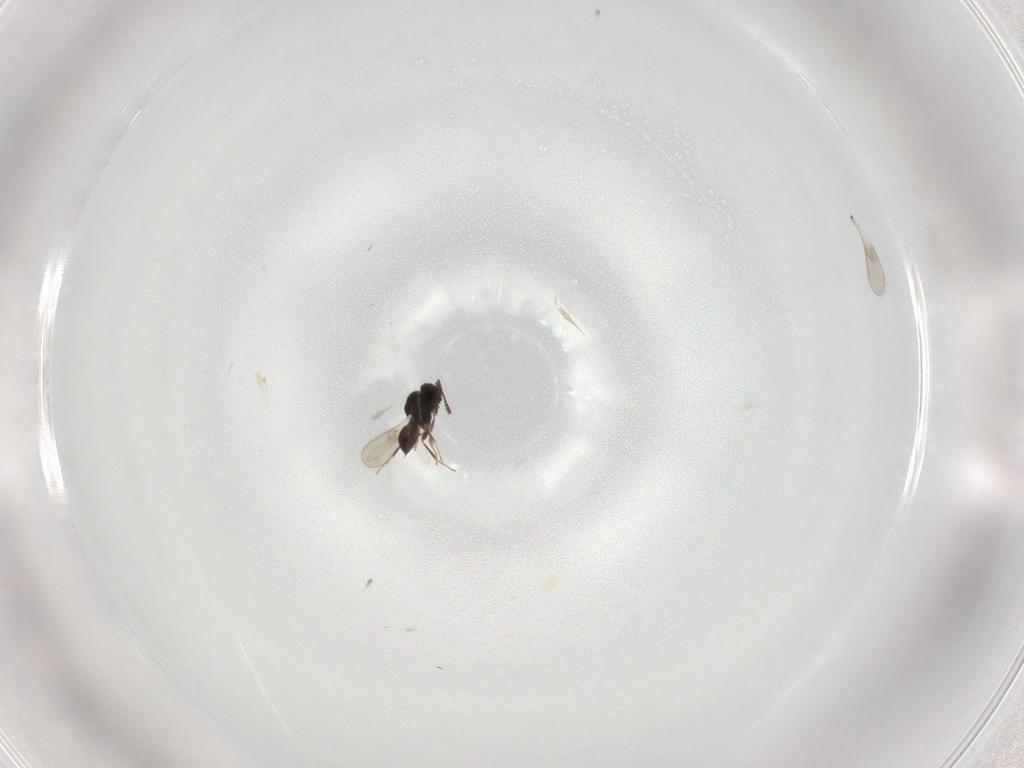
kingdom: Animalia
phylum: Arthropoda
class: Insecta
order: Hymenoptera
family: Scelionidae
